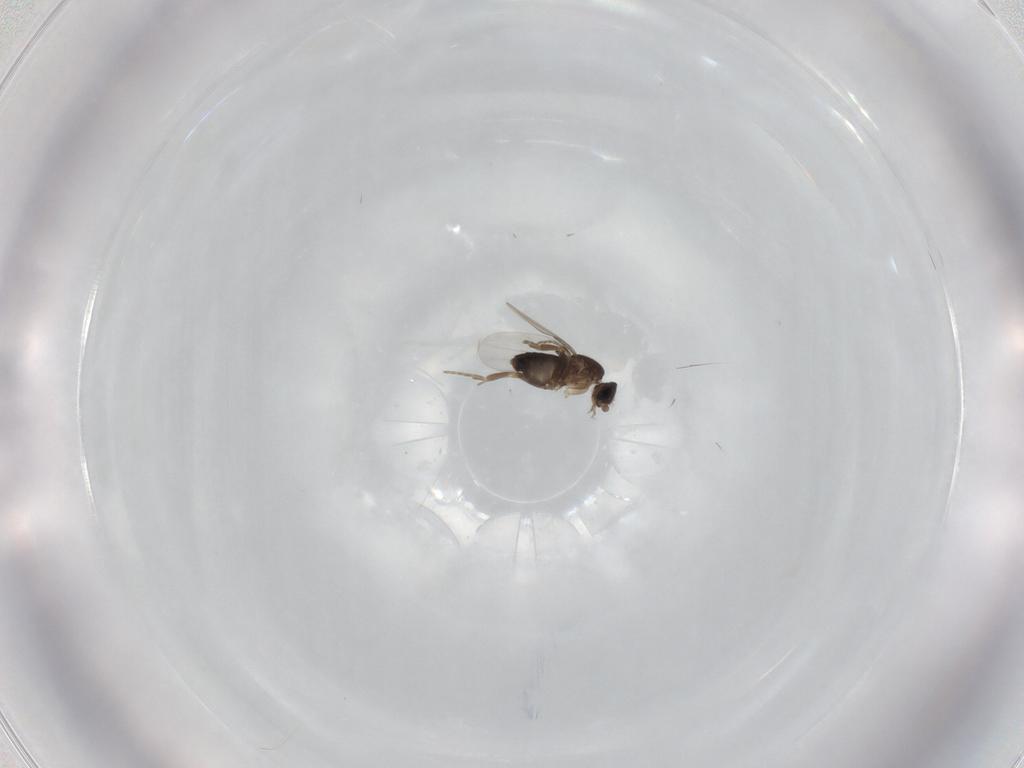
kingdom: Animalia
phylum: Arthropoda
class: Insecta
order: Diptera
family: Phoridae
